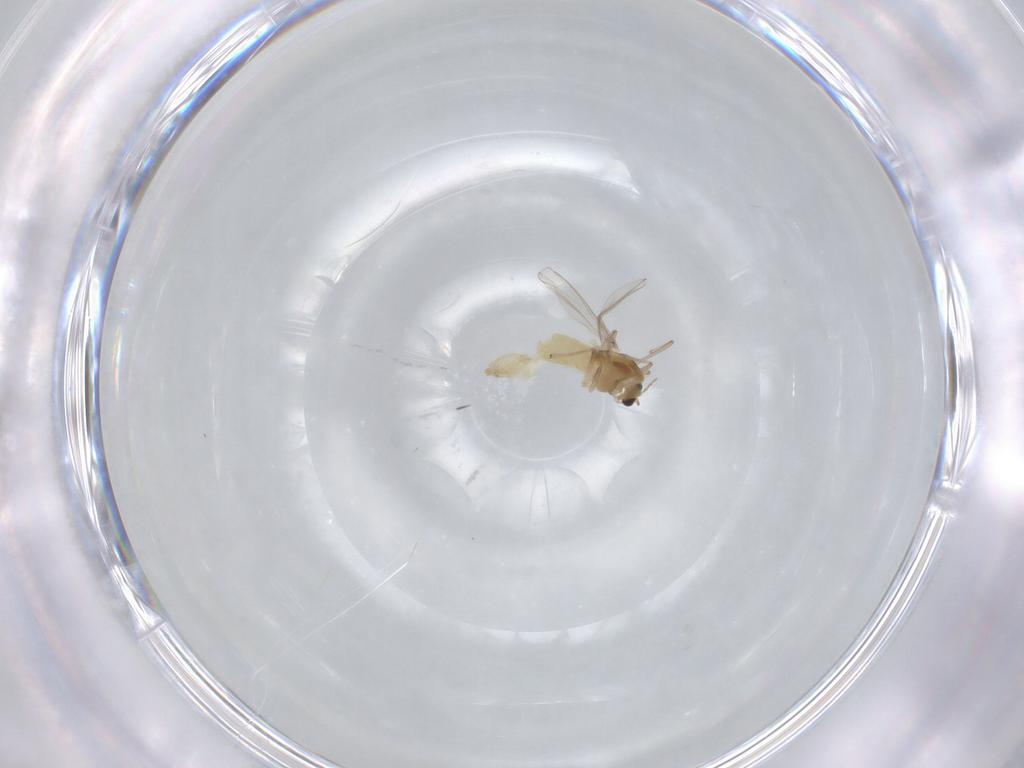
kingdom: Animalia
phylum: Arthropoda
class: Insecta
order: Diptera
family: Chironomidae
